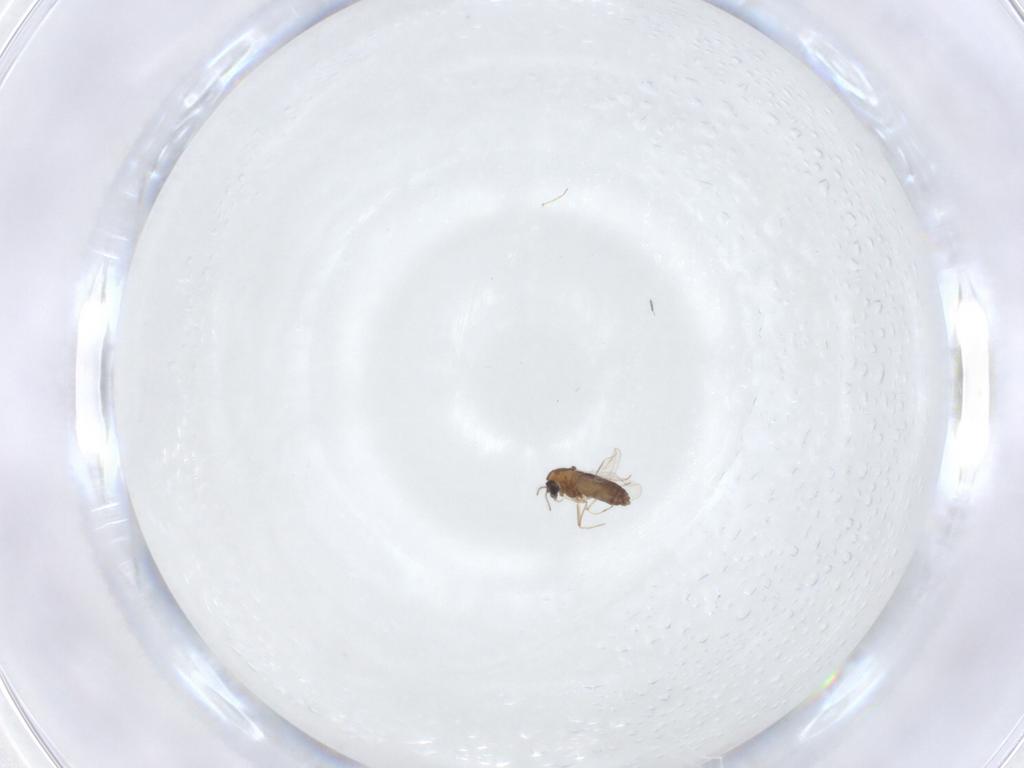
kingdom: Animalia
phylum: Arthropoda
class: Insecta
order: Diptera
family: Chironomidae
